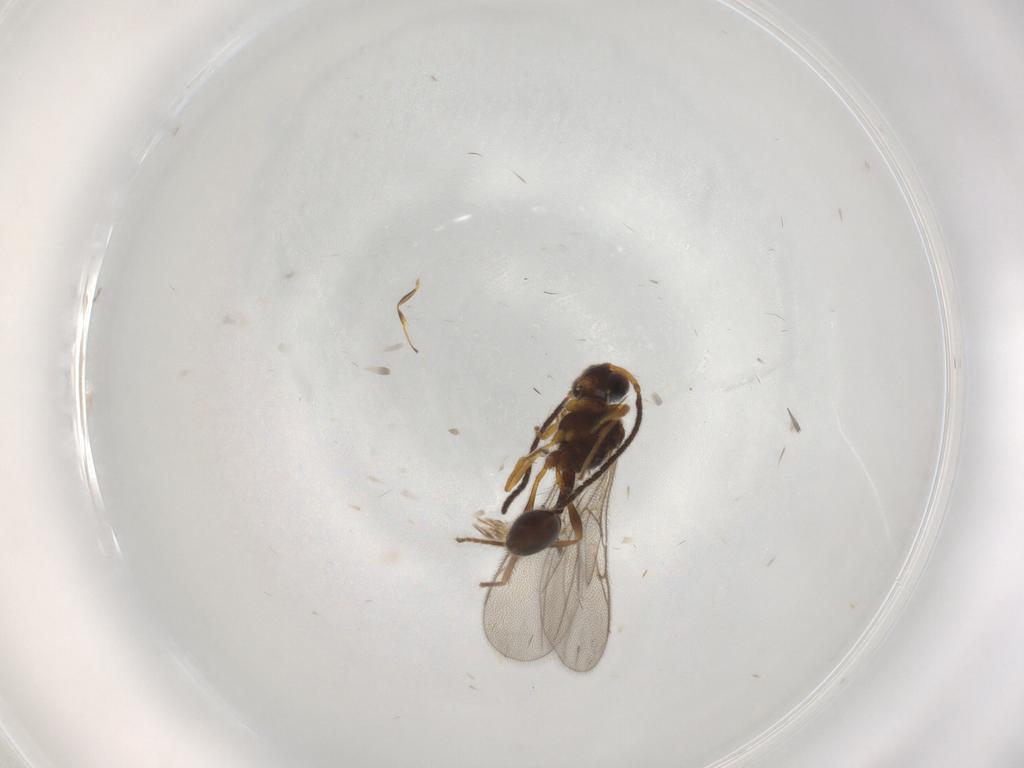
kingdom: Animalia
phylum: Arthropoda
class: Insecta
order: Hymenoptera
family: Diapriidae
